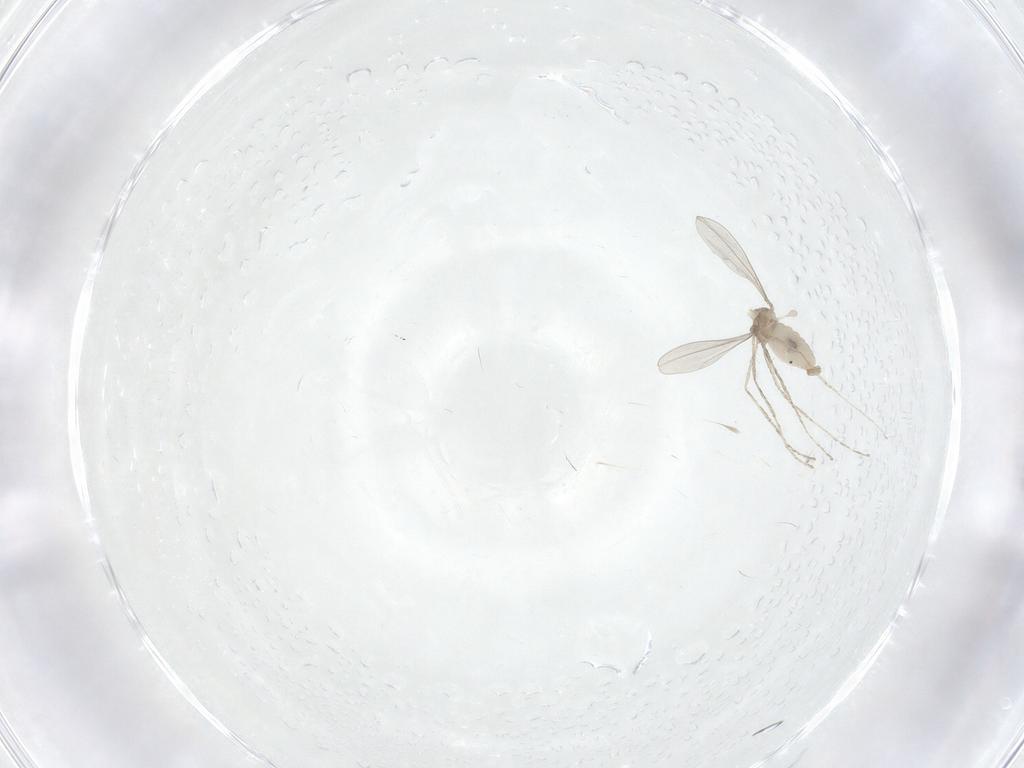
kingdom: Animalia
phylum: Arthropoda
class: Insecta
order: Diptera
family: Cecidomyiidae
